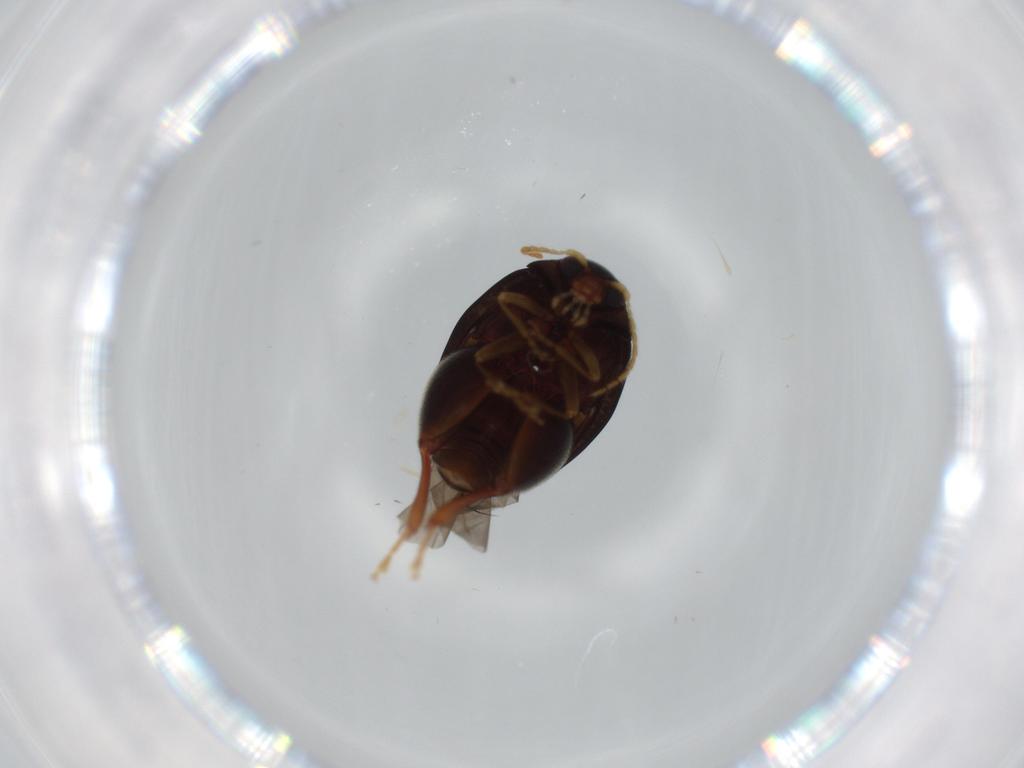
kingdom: Animalia
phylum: Arthropoda
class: Insecta
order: Coleoptera
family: Chrysomelidae
